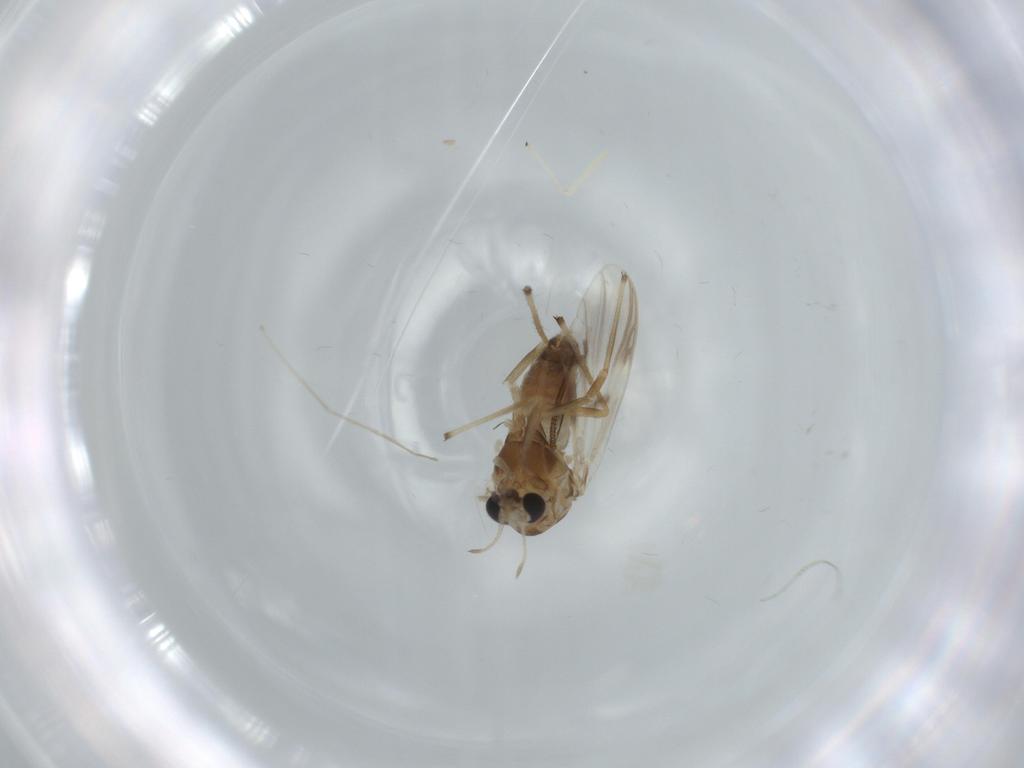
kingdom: Animalia
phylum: Arthropoda
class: Insecta
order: Diptera
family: Chironomidae
